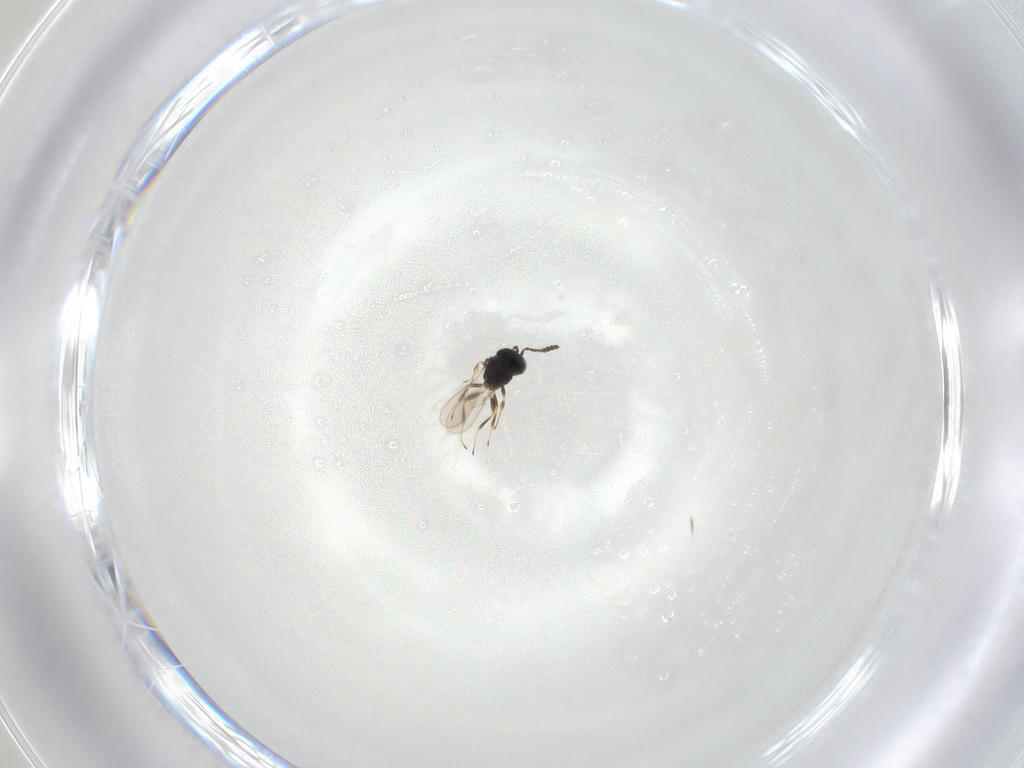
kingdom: Animalia
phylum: Arthropoda
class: Insecta
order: Hymenoptera
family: Scelionidae
